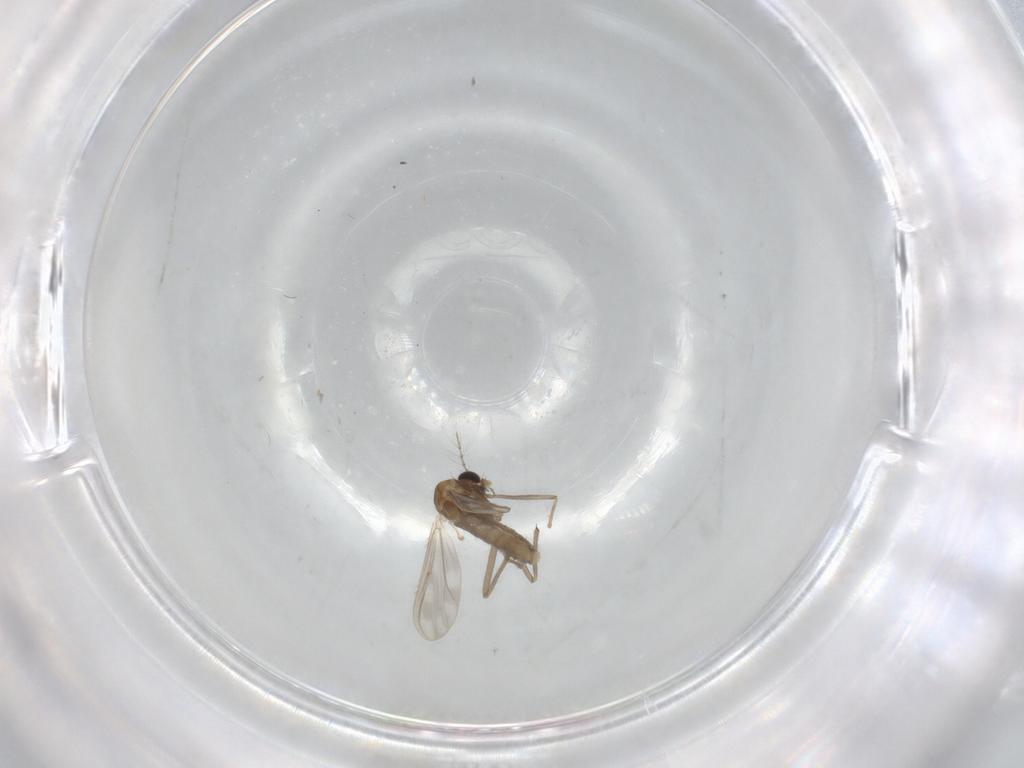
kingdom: Animalia
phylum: Arthropoda
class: Insecta
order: Diptera
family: Chironomidae
